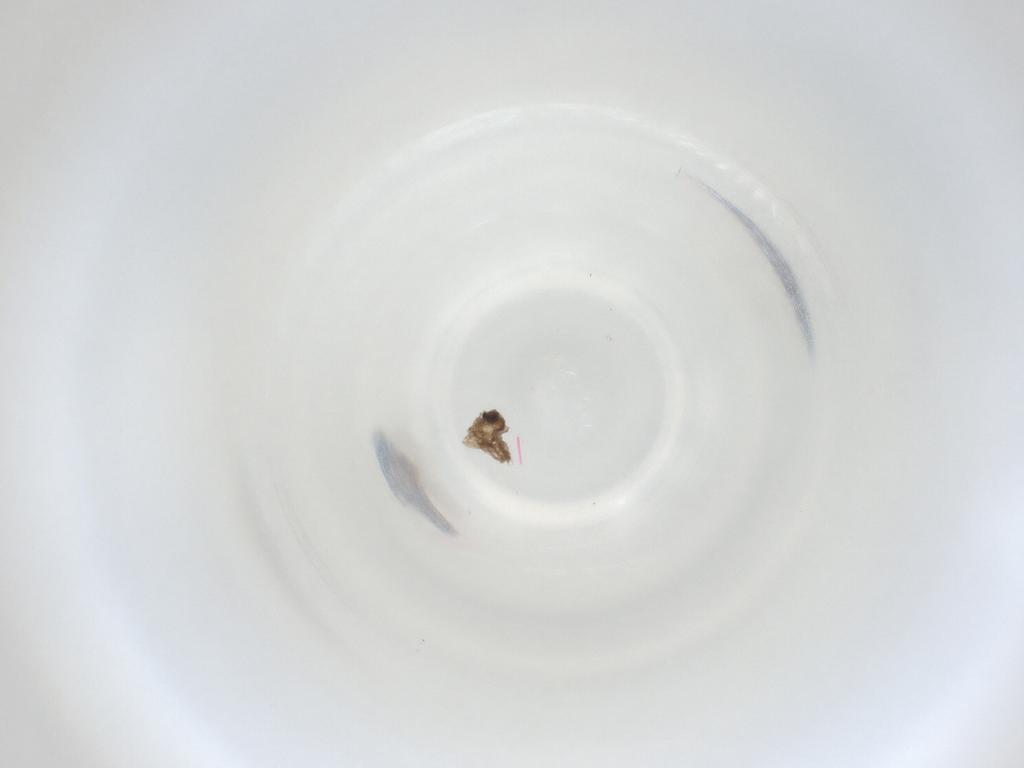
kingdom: Animalia
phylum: Arthropoda
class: Insecta
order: Diptera
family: Cecidomyiidae
